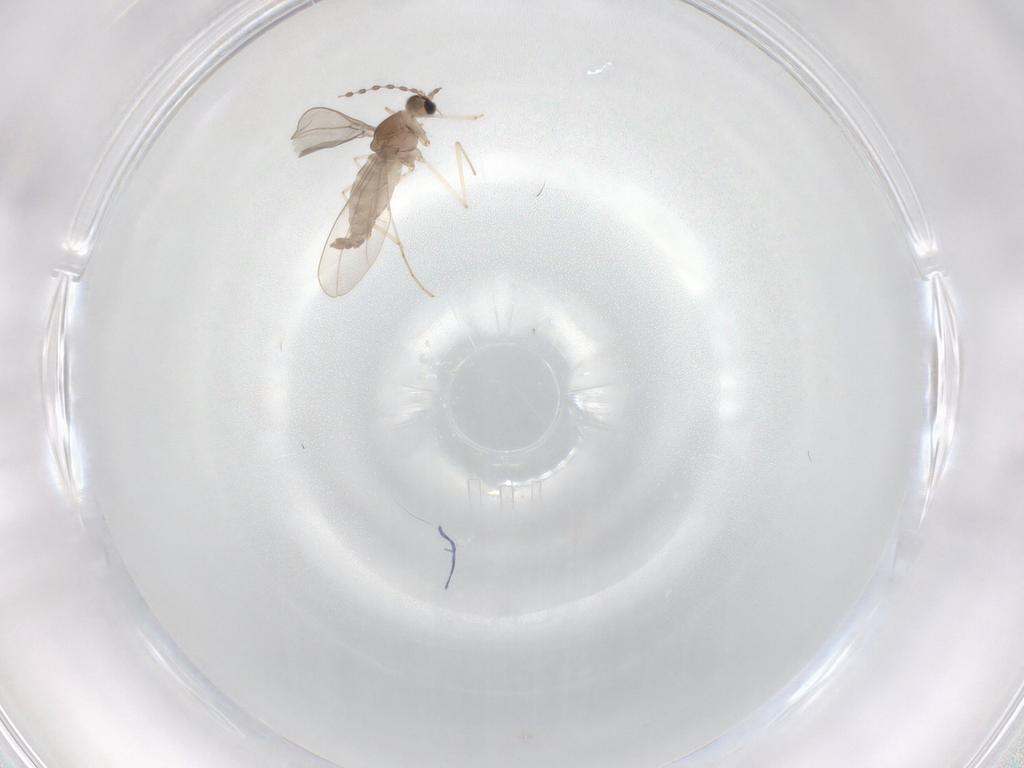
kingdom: Animalia
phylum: Arthropoda
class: Insecta
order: Diptera
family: Cecidomyiidae
